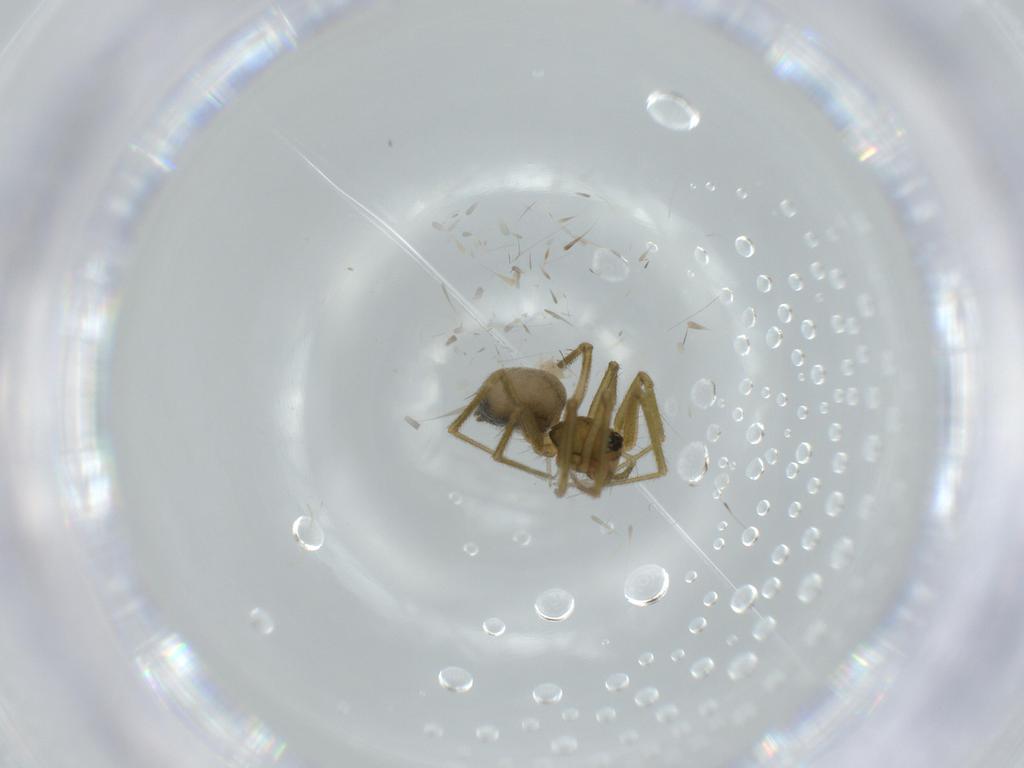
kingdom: Animalia
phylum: Arthropoda
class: Arachnida
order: Araneae
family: Linyphiidae
